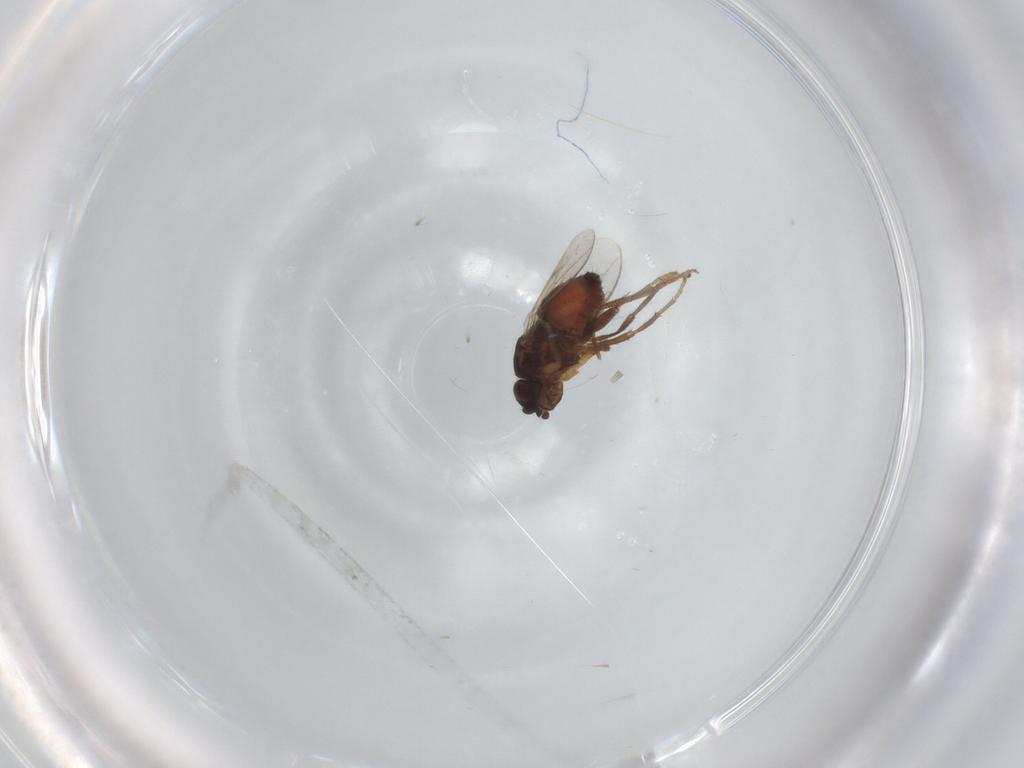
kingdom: Animalia
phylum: Arthropoda
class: Insecta
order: Diptera
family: Sphaeroceridae
